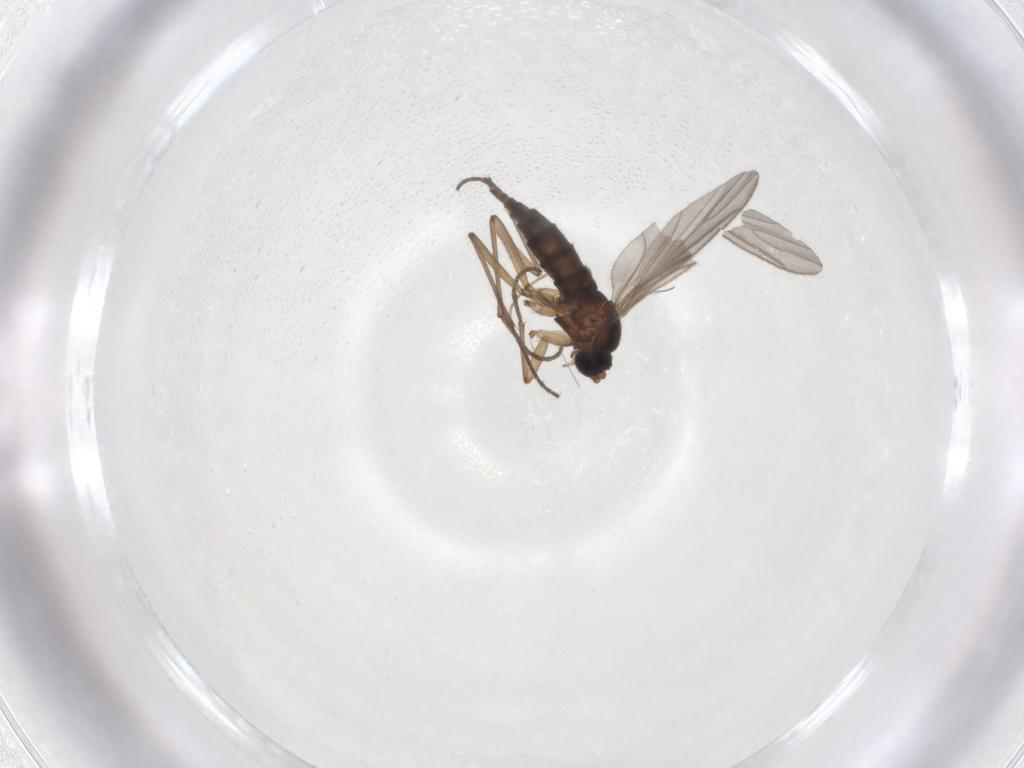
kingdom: Animalia
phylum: Arthropoda
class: Insecta
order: Diptera
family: Sciaridae
